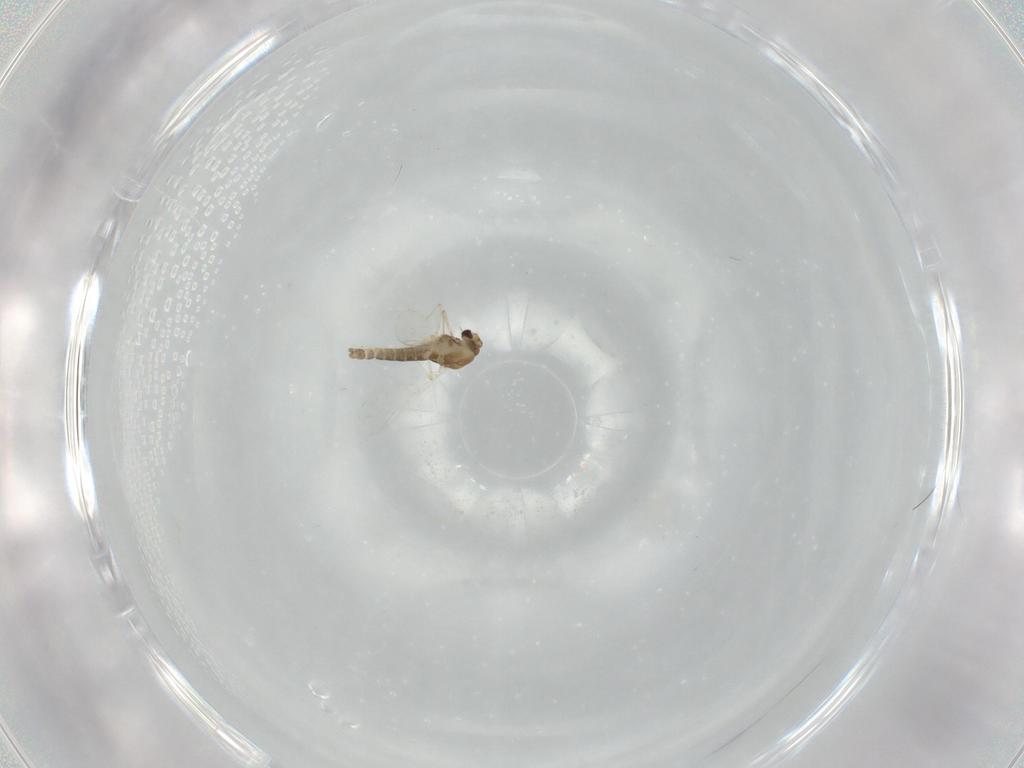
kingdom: Animalia
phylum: Arthropoda
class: Insecta
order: Diptera
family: Chironomidae
